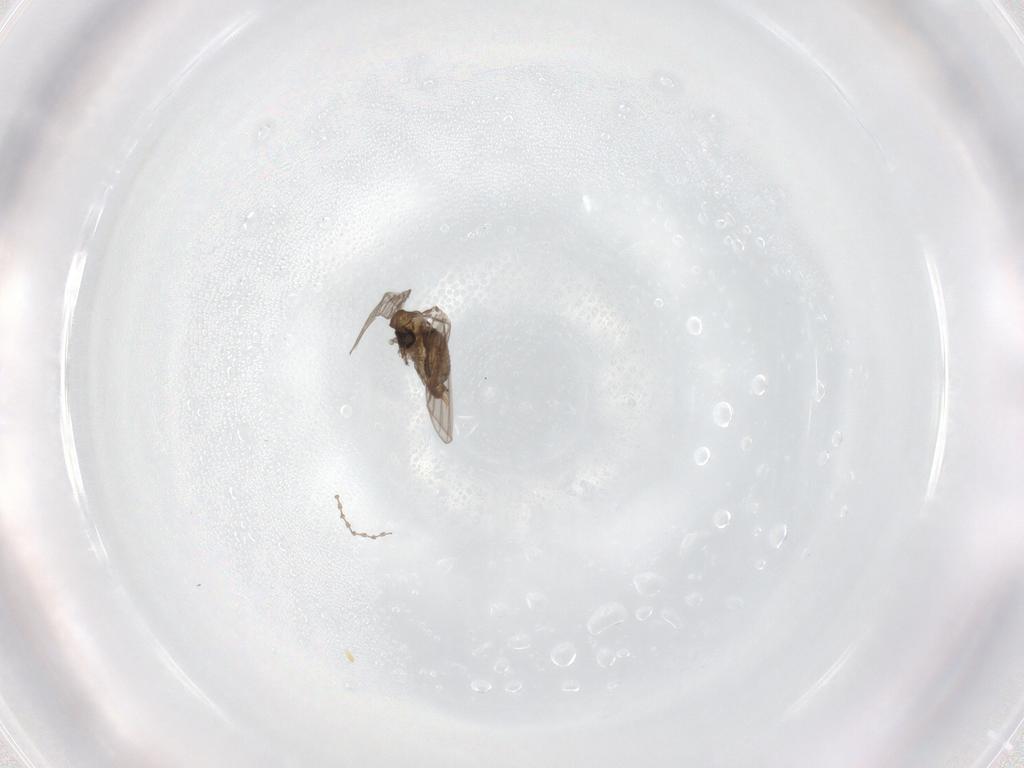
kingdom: Animalia
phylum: Arthropoda
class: Insecta
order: Diptera
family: Psychodidae
